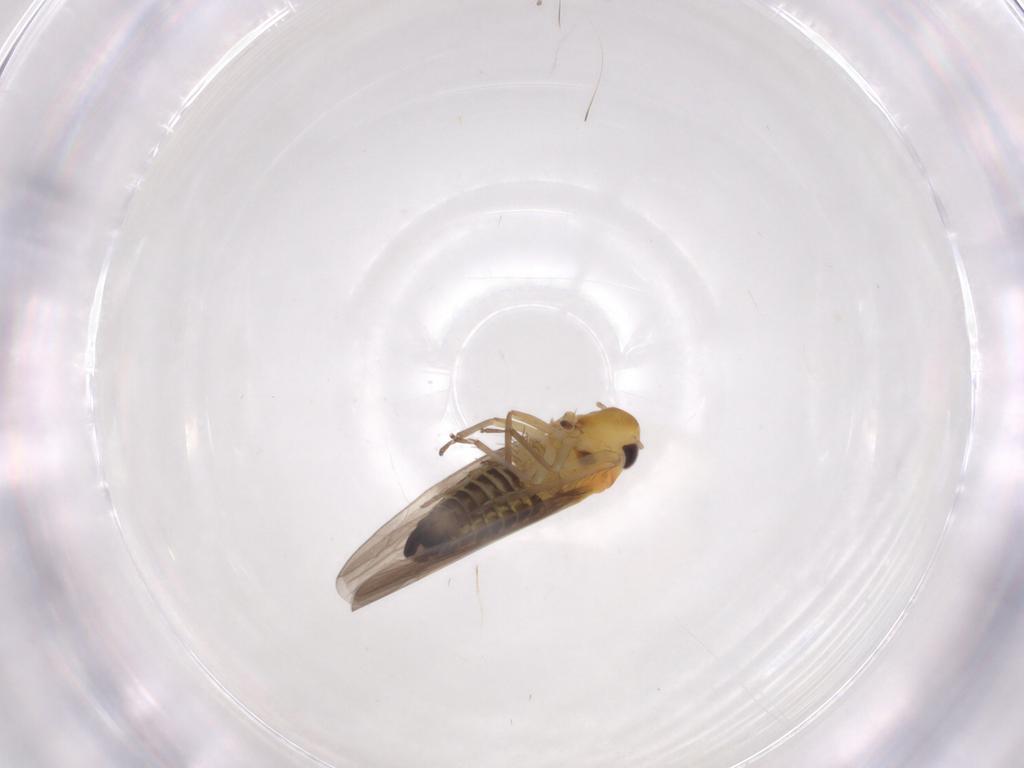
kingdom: Animalia
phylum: Arthropoda
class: Insecta
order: Hemiptera
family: Cicadellidae
